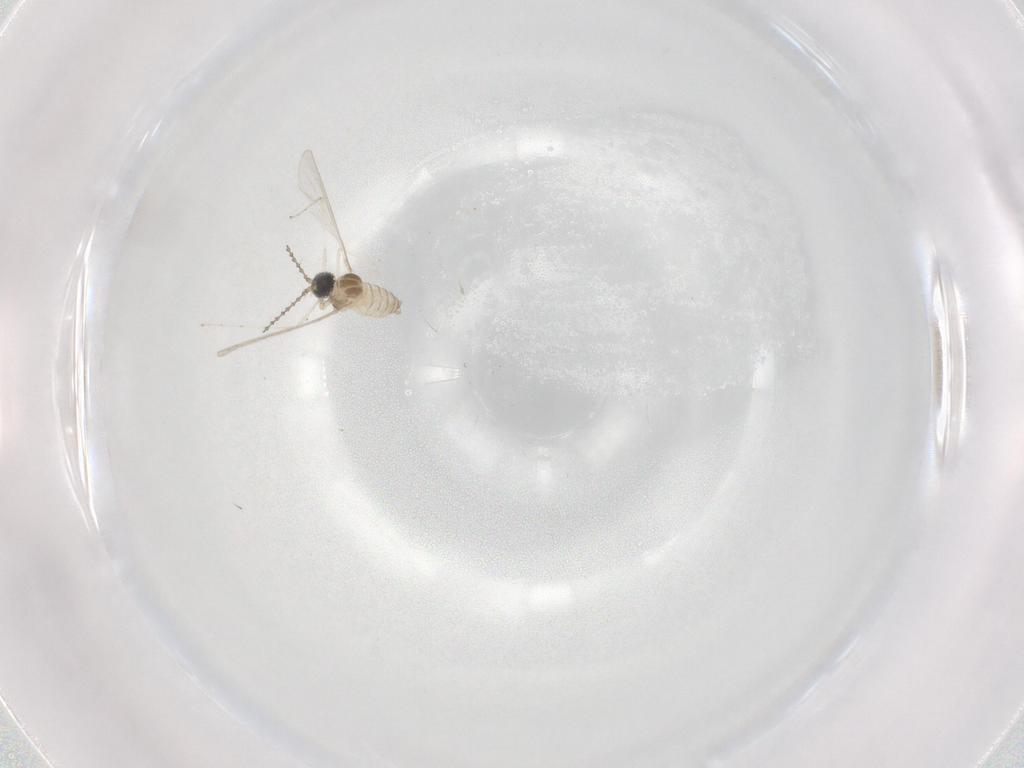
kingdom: Animalia
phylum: Arthropoda
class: Insecta
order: Diptera
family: Cecidomyiidae
